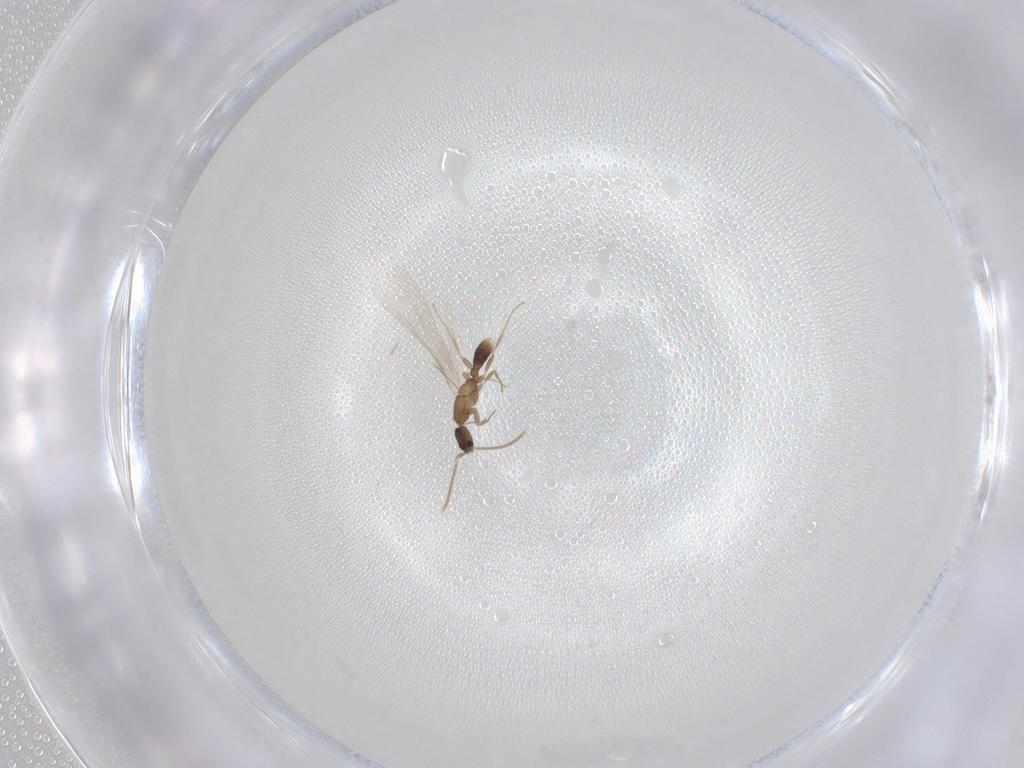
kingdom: Animalia
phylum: Arthropoda
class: Insecta
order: Hymenoptera
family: Formicidae
